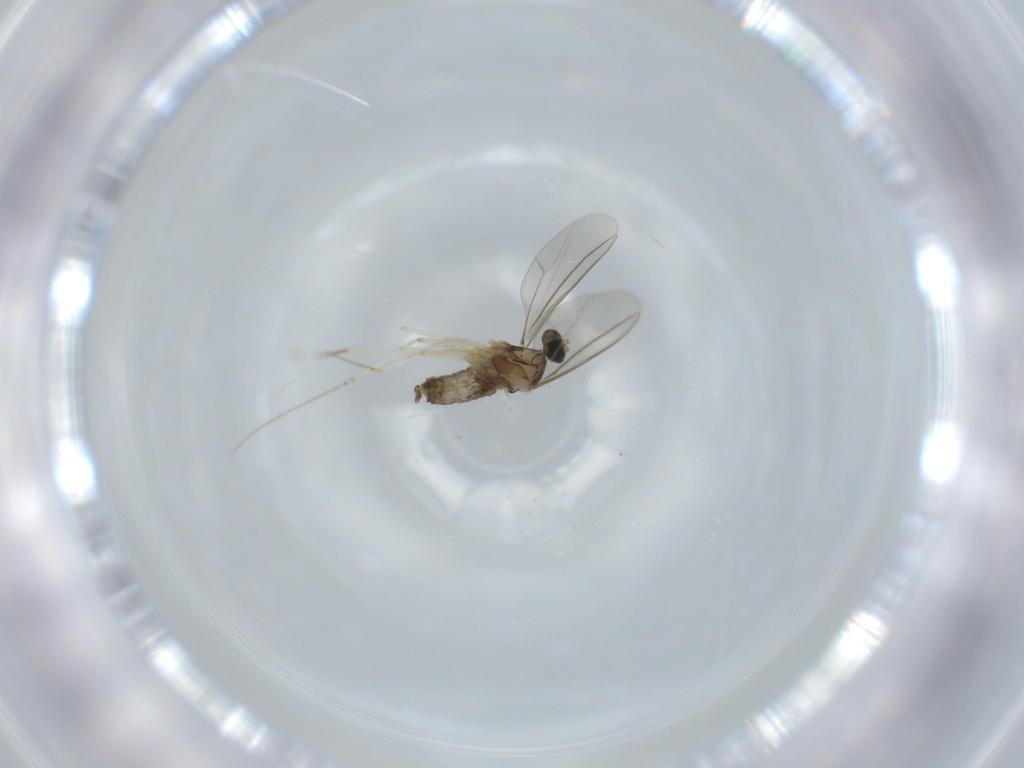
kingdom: Animalia
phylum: Arthropoda
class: Insecta
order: Diptera
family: Cecidomyiidae
